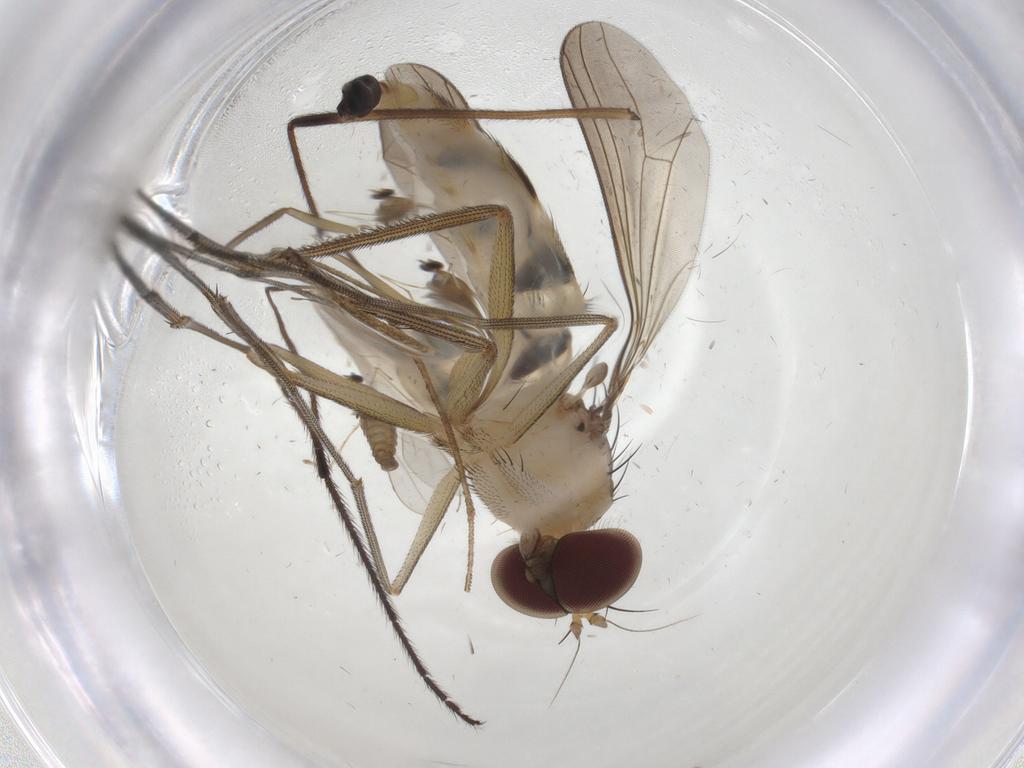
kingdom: Animalia
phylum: Arthropoda
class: Insecta
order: Diptera
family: Dolichopodidae
